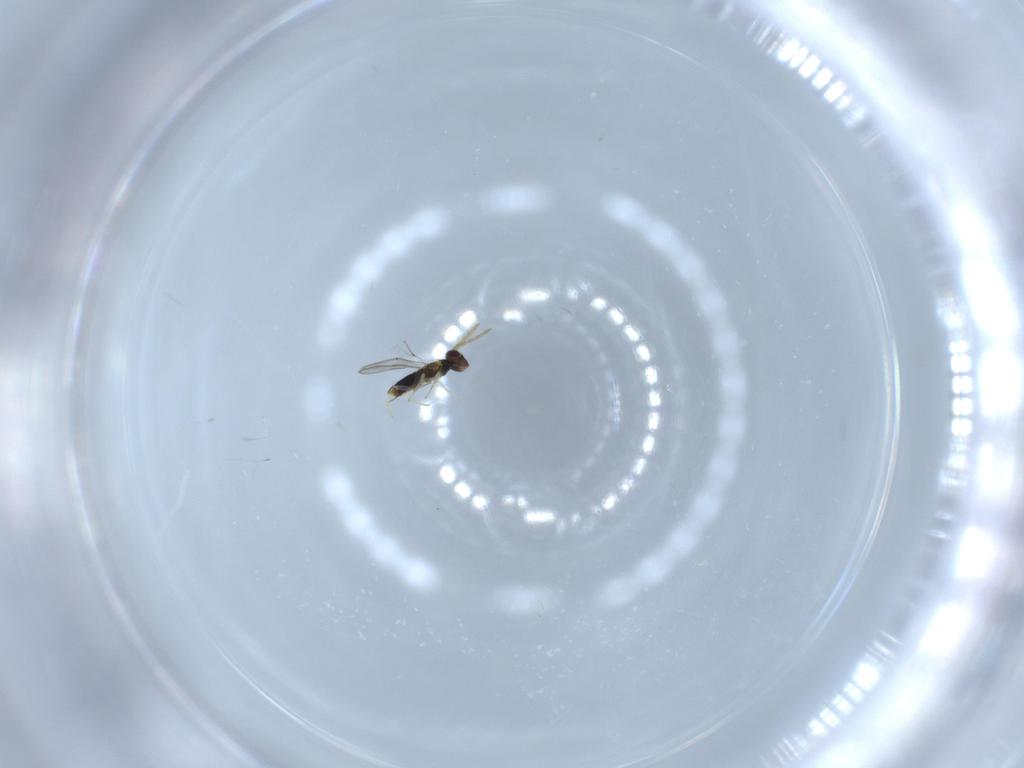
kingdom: Animalia
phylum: Arthropoda
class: Insecta
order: Hymenoptera
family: Aphelinidae
